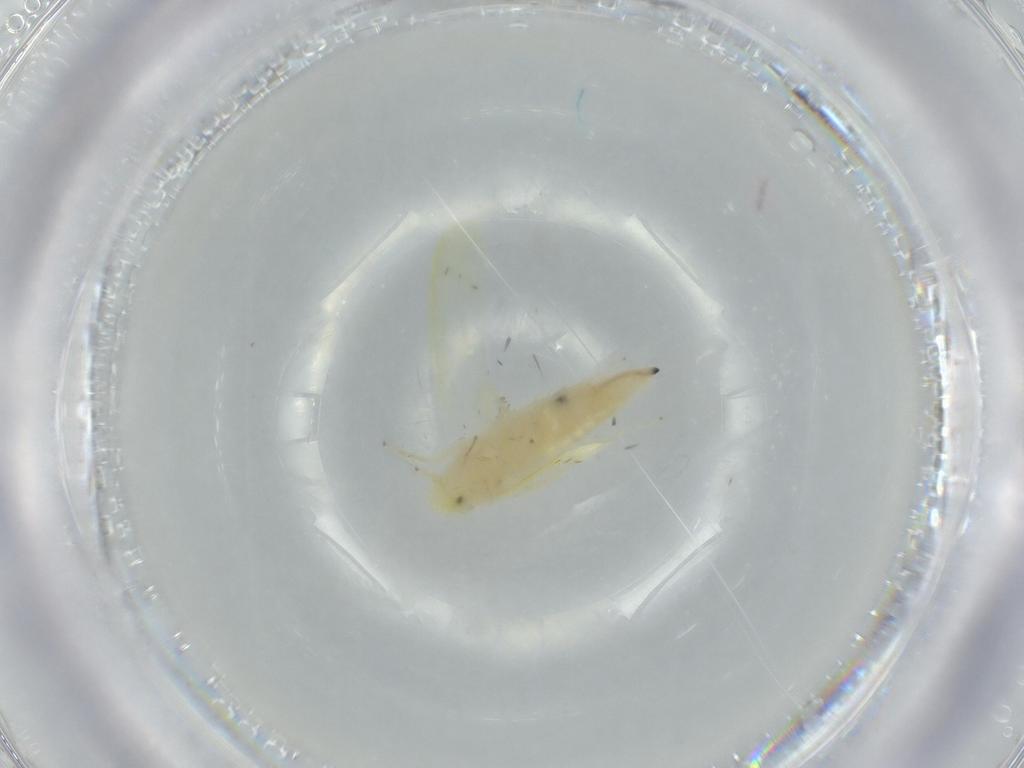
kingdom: Animalia
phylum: Arthropoda
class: Insecta
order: Hemiptera
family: Cicadellidae
